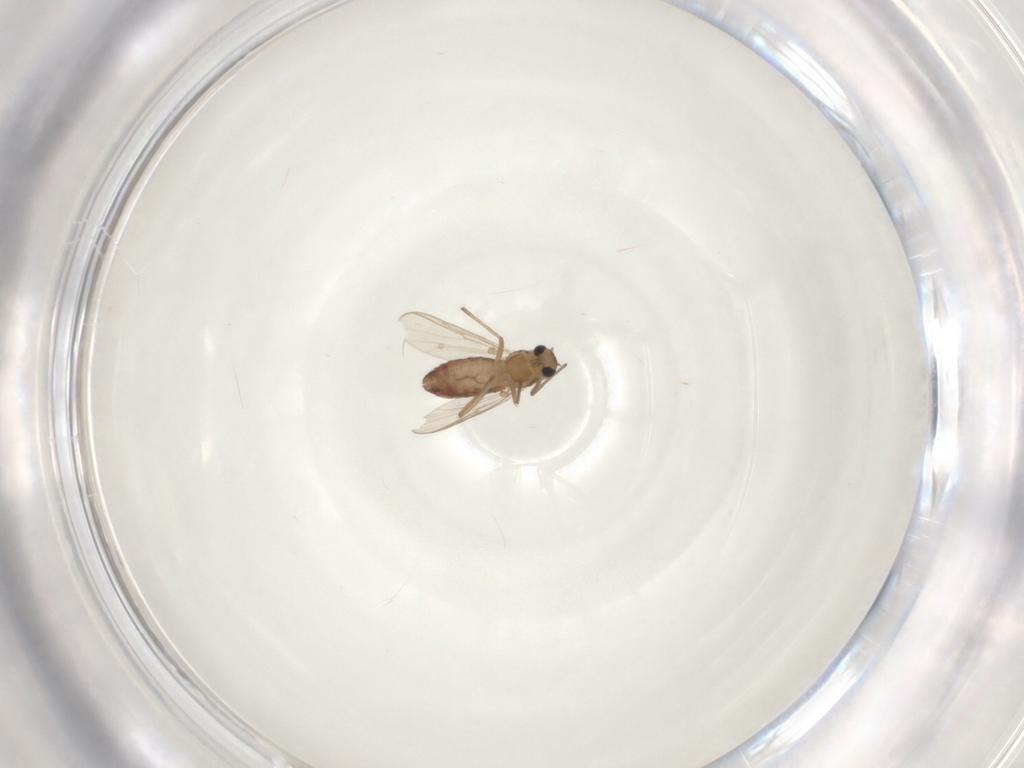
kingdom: Animalia
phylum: Arthropoda
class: Insecta
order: Diptera
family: Chironomidae
